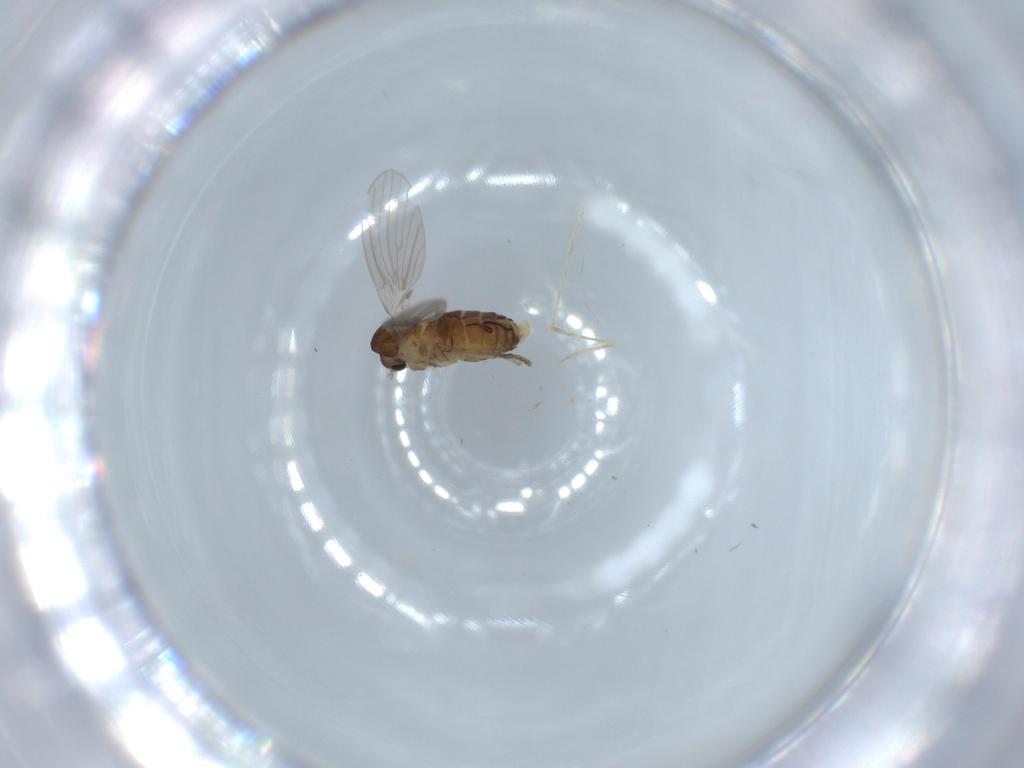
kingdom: Animalia
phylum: Arthropoda
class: Insecta
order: Diptera
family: Psychodidae
